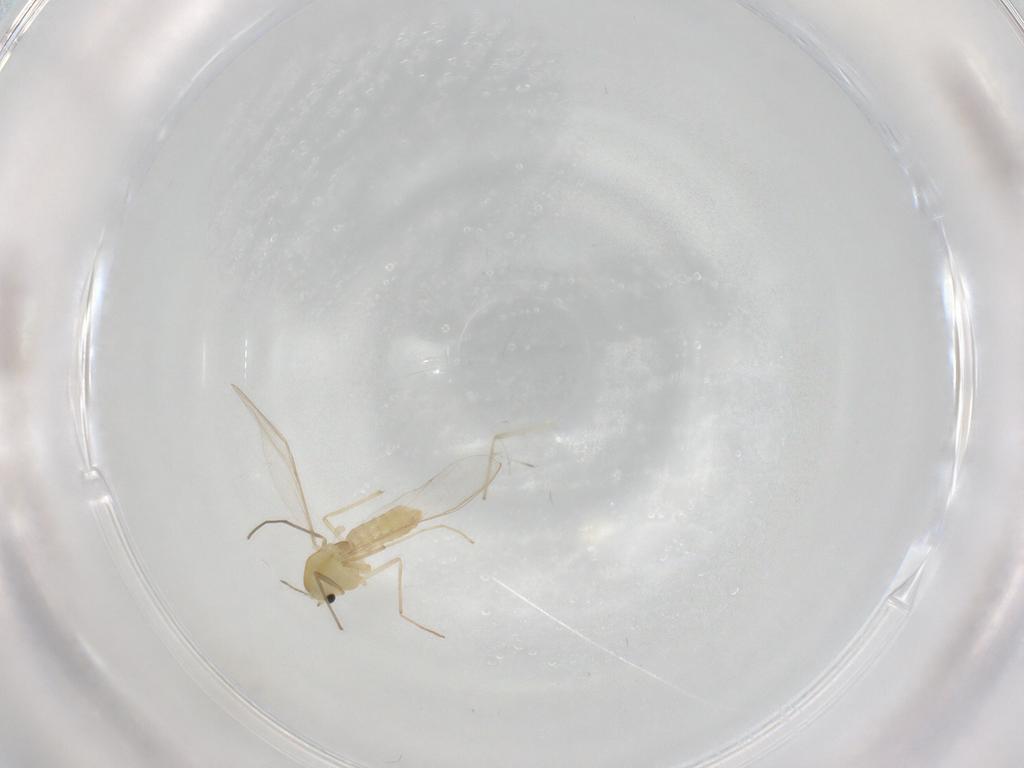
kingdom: Animalia
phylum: Arthropoda
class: Insecta
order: Diptera
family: Chironomidae
